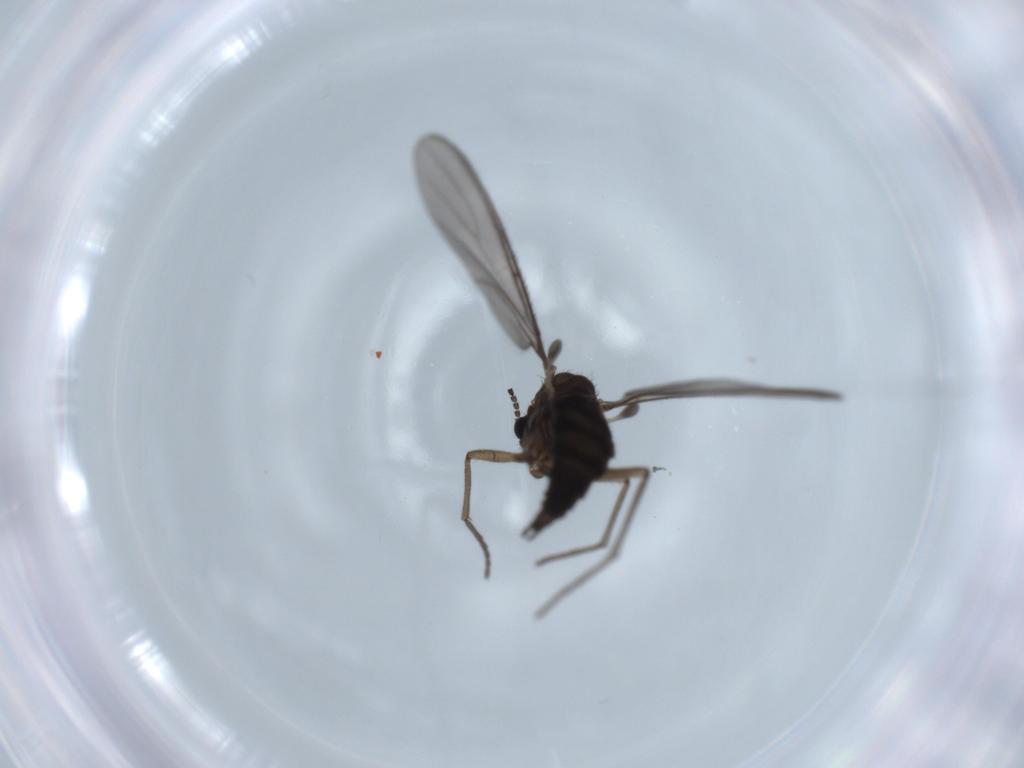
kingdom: Animalia
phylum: Arthropoda
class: Insecta
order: Diptera
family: Sciaridae
